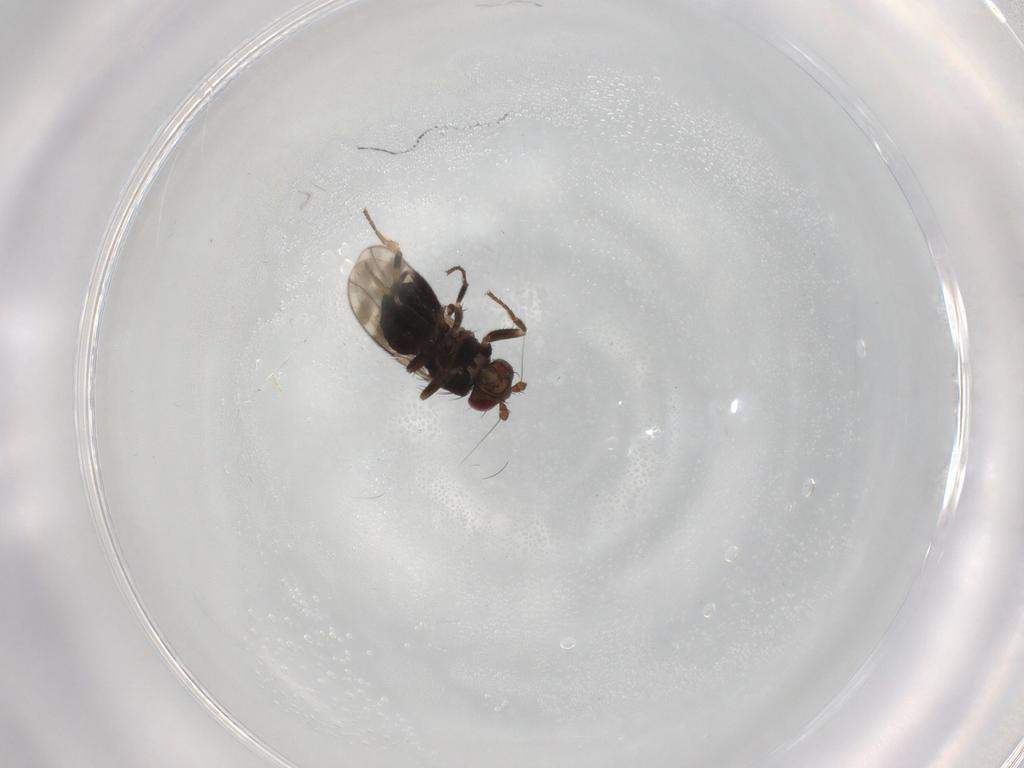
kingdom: Animalia
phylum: Arthropoda
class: Insecta
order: Diptera
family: Sphaeroceridae
